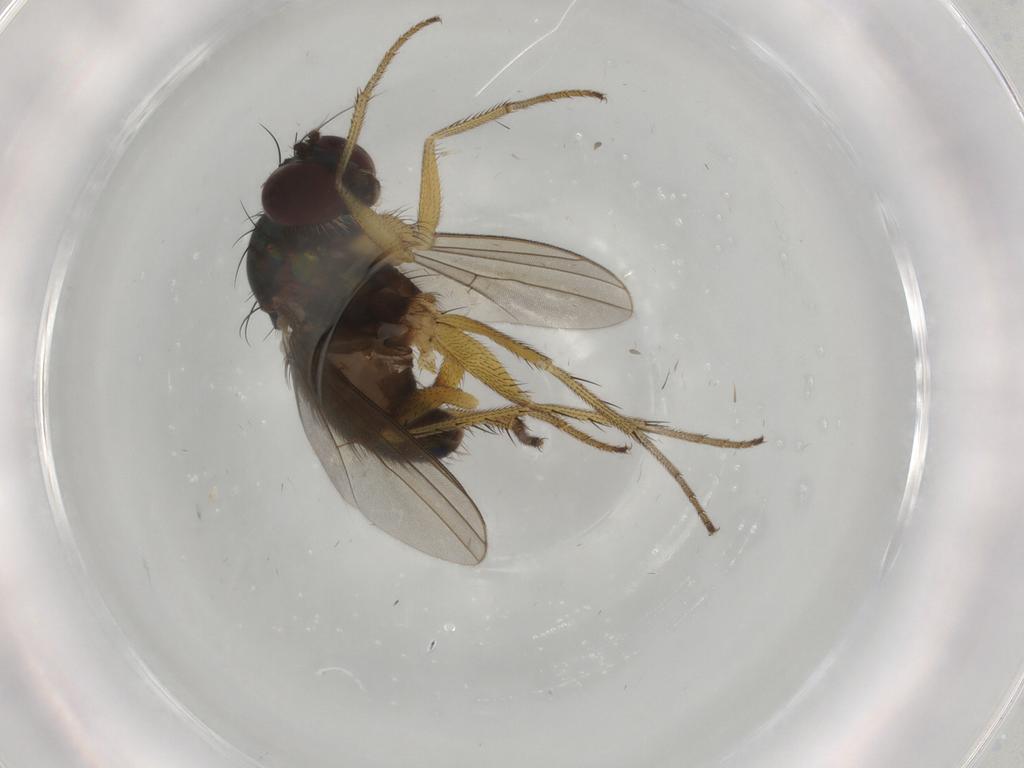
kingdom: Animalia
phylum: Arthropoda
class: Insecta
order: Diptera
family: Dolichopodidae
